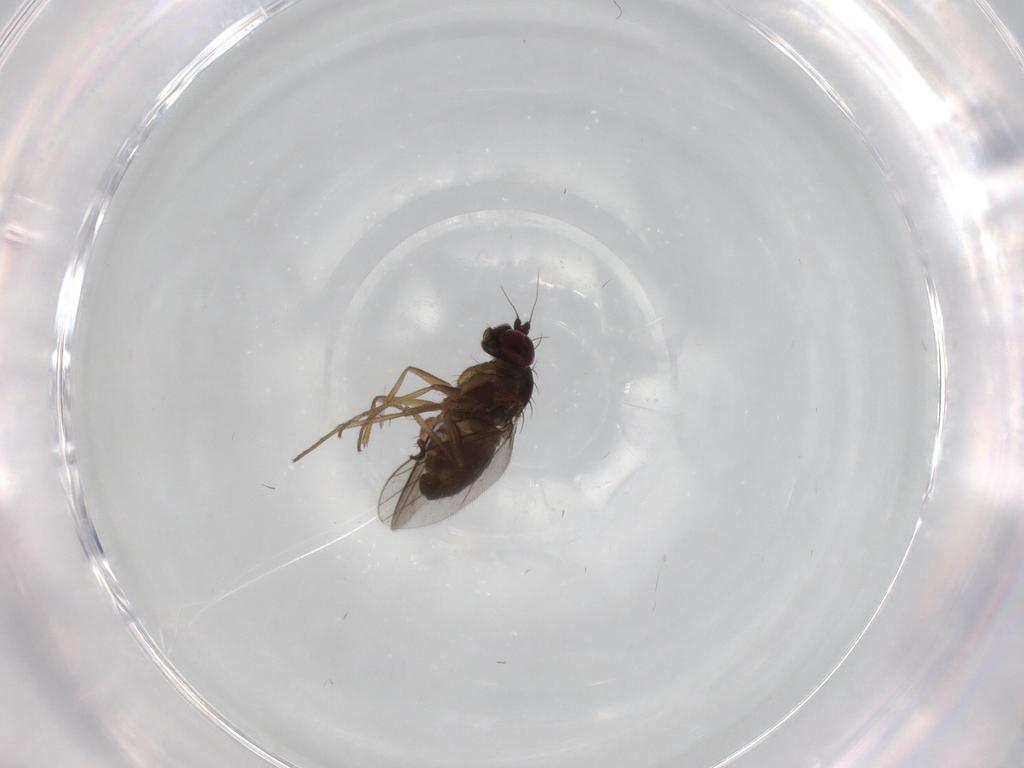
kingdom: Animalia
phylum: Arthropoda
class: Insecta
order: Diptera
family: Dolichopodidae
